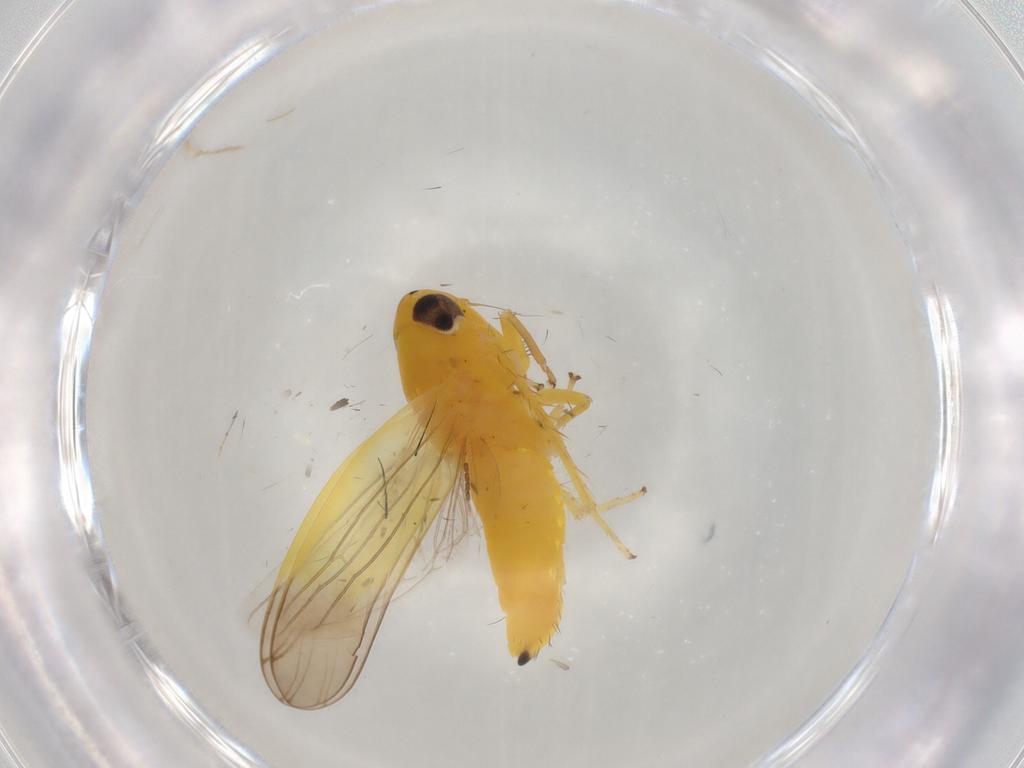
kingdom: Animalia
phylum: Arthropoda
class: Insecta
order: Hemiptera
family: Cicadellidae
